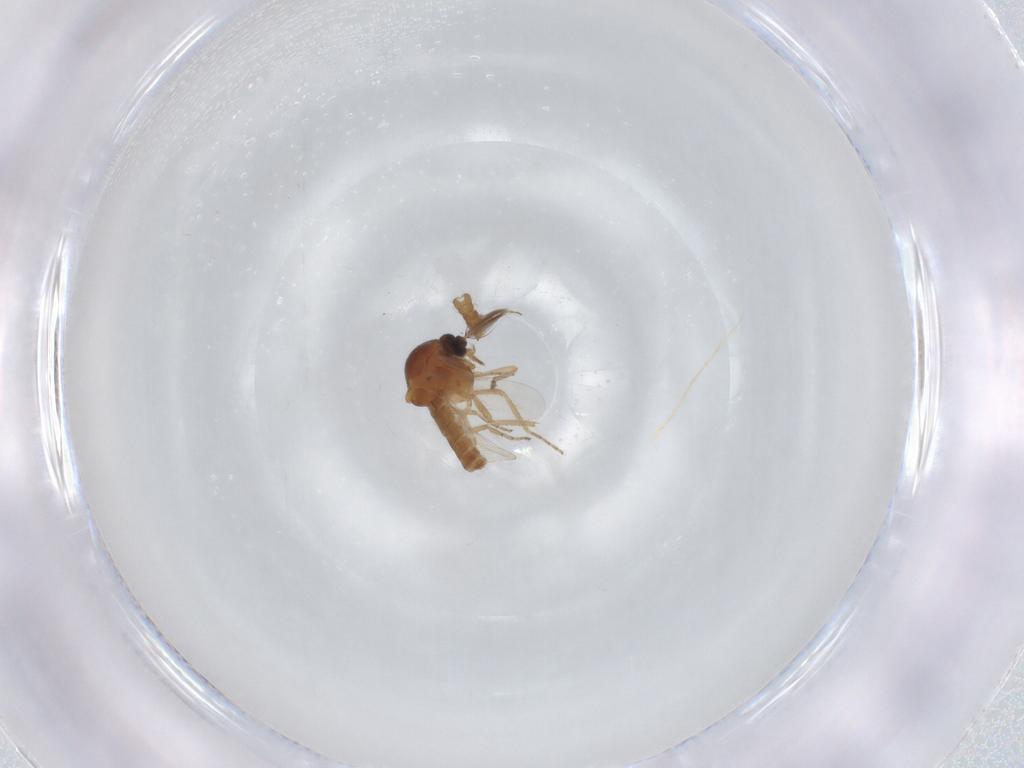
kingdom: Animalia
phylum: Arthropoda
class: Insecta
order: Diptera
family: Ceratopogonidae
